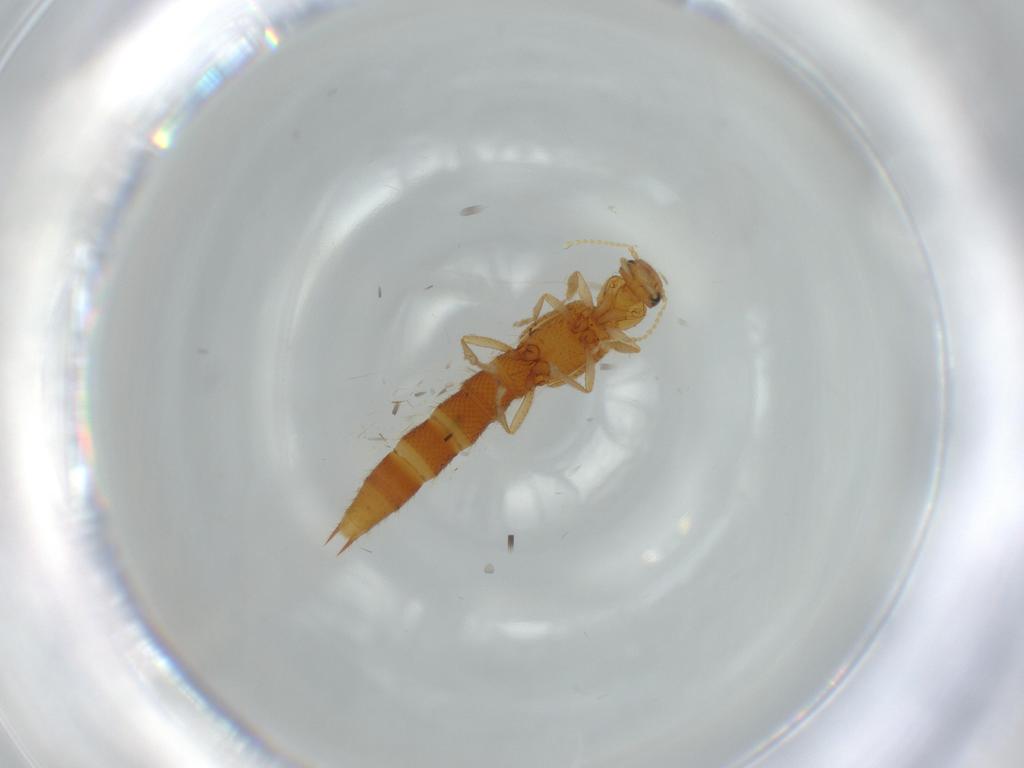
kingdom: Animalia
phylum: Arthropoda
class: Insecta
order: Coleoptera
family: Staphylinidae
